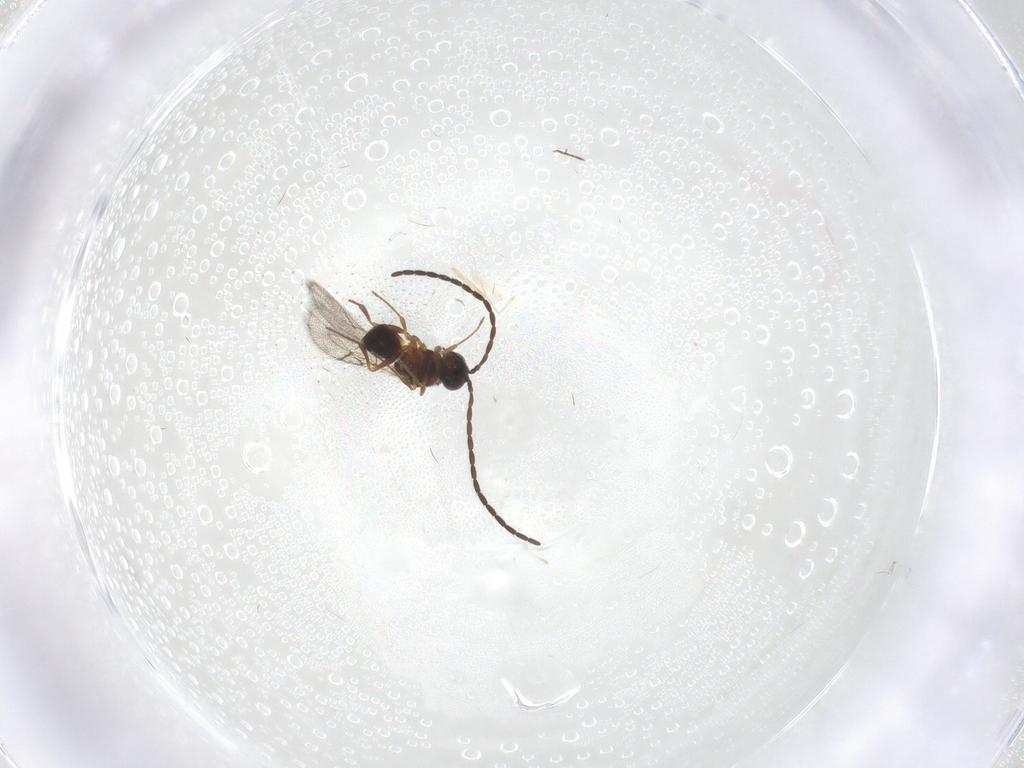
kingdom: Animalia
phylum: Arthropoda
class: Insecta
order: Hymenoptera
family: Figitidae
